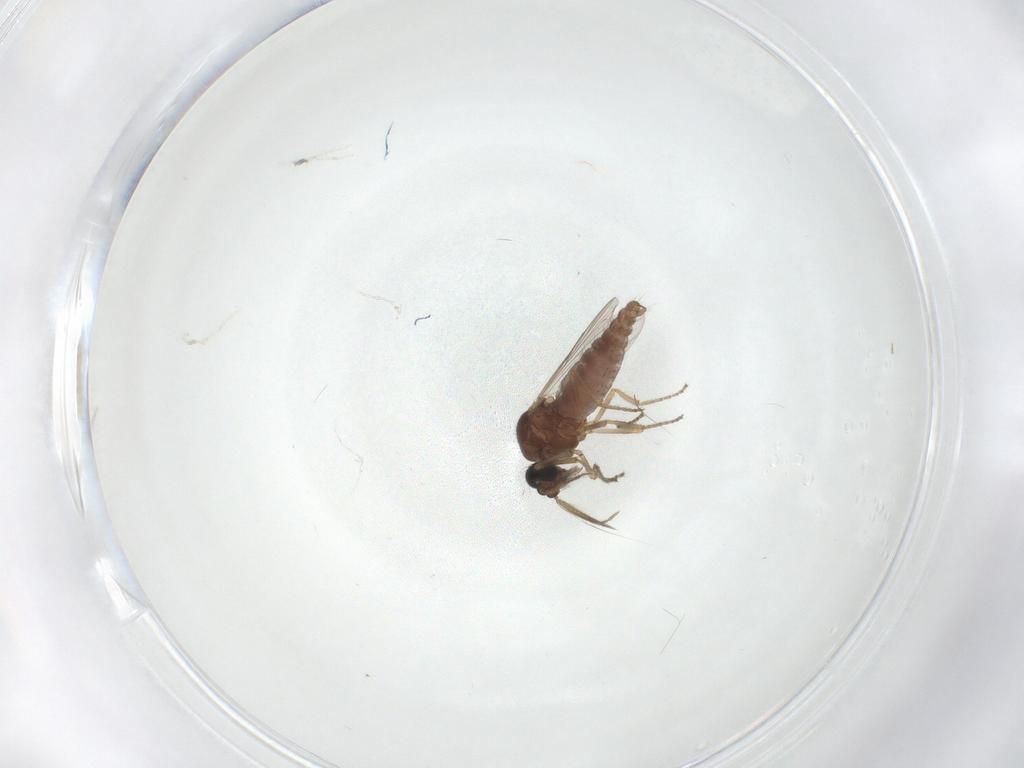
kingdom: Animalia
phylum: Arthropoda
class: Insecta
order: Diptera
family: Ceratopogonidae
